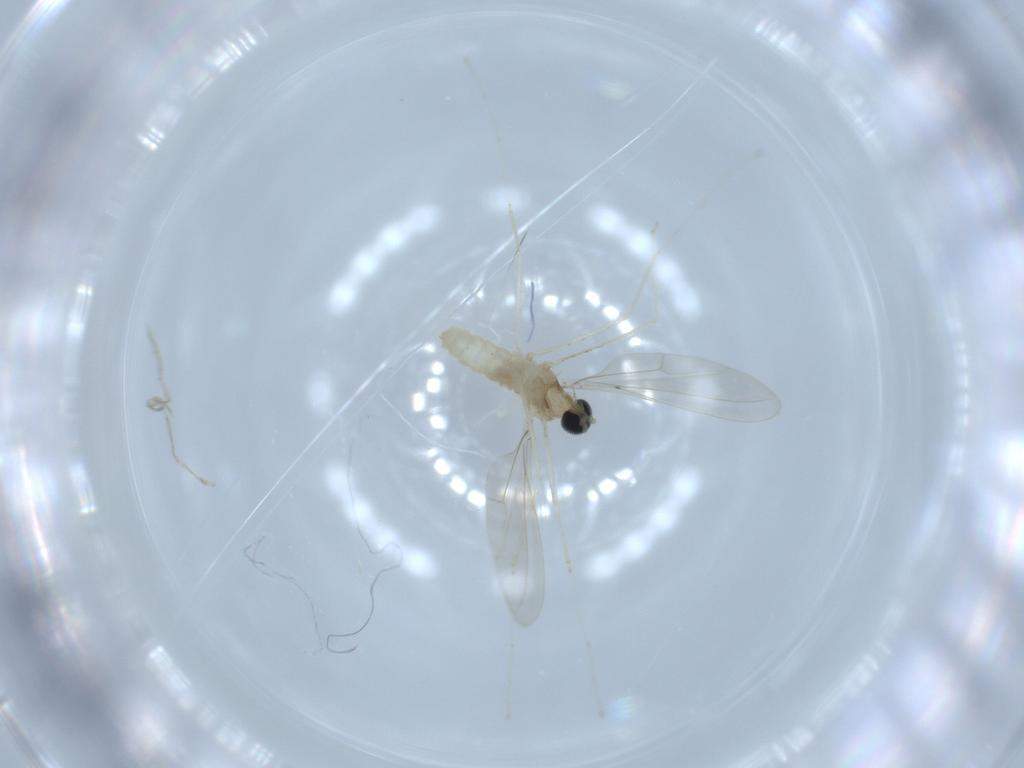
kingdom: Animalia
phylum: Arthropoda
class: Insecta
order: Diptera
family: Cecidomyiidae
